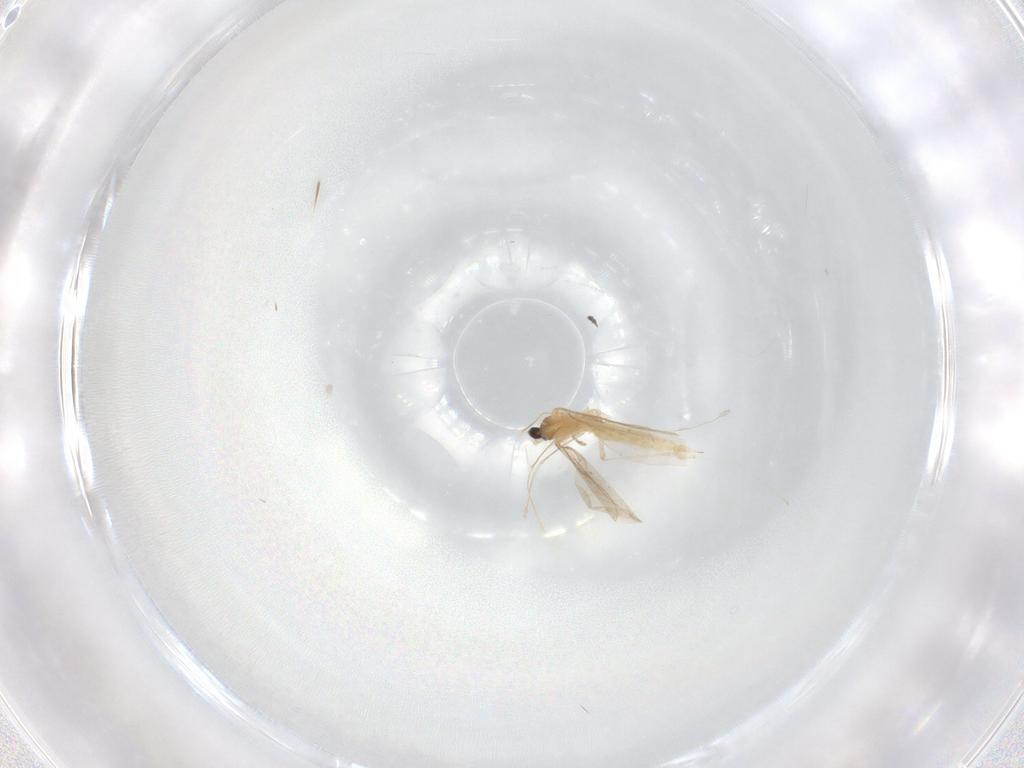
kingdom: Animalia
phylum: Arthropoda
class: Insecta
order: Diptera
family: Cecidomyiidae
